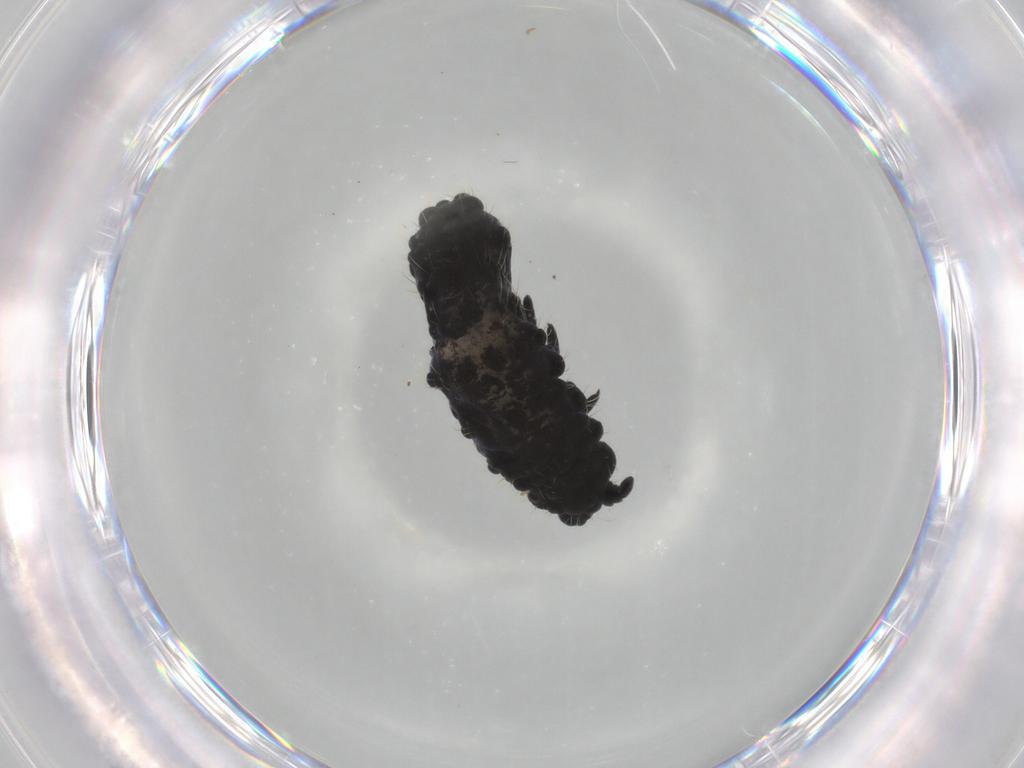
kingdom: Animalia
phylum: Arthropoda
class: Collembola
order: Poduromorpha
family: Neanuridae
